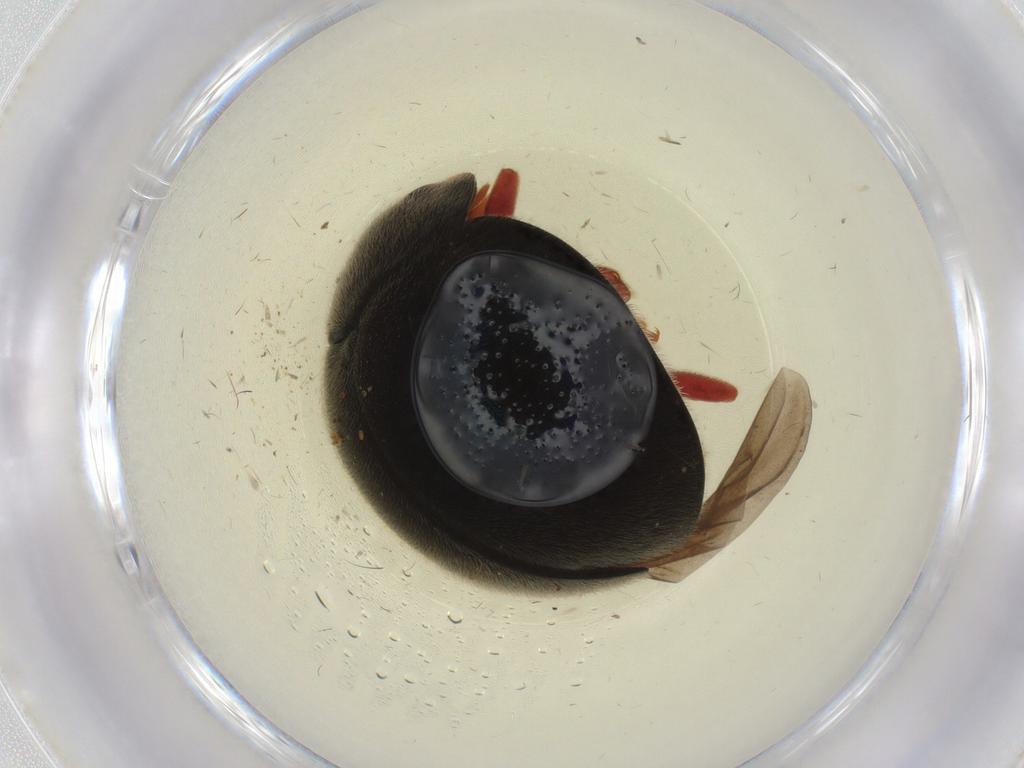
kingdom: Animalia
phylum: Arthropoda
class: Insecta
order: Coleoptera
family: Coccinellidae
